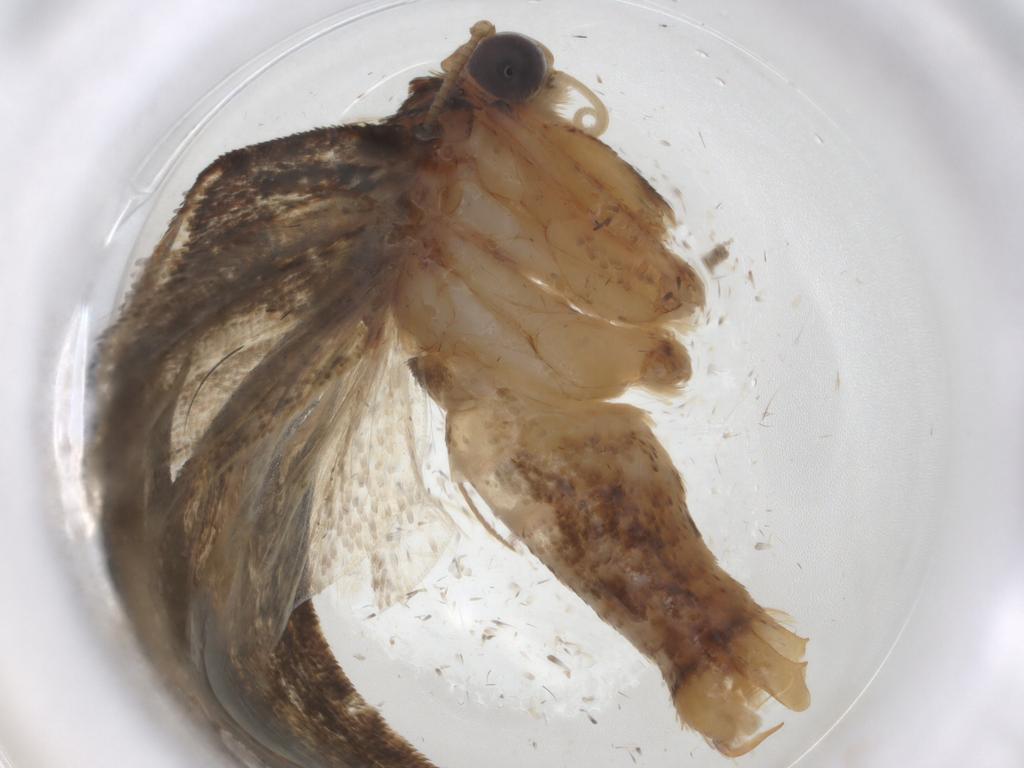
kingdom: Animalia
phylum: Arthropoda
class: Insecta
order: Lepidoptera
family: Tortricidae
